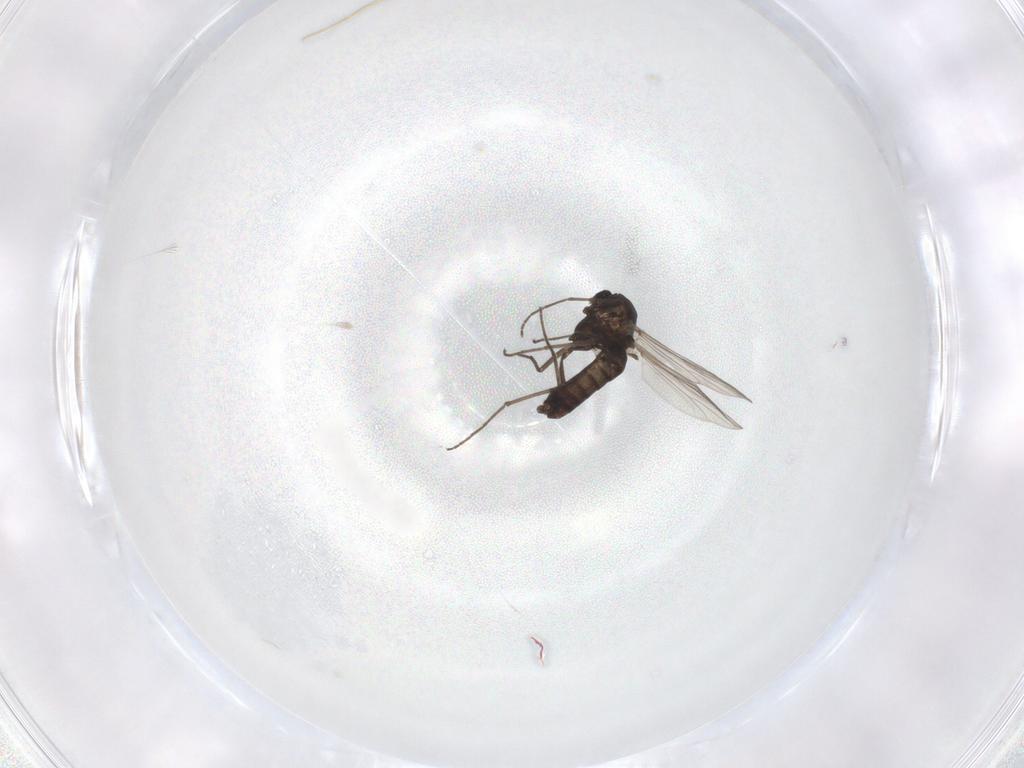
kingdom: Animalia
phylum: Arthropoda
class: Insecta
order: Diptera
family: Chironomidae
